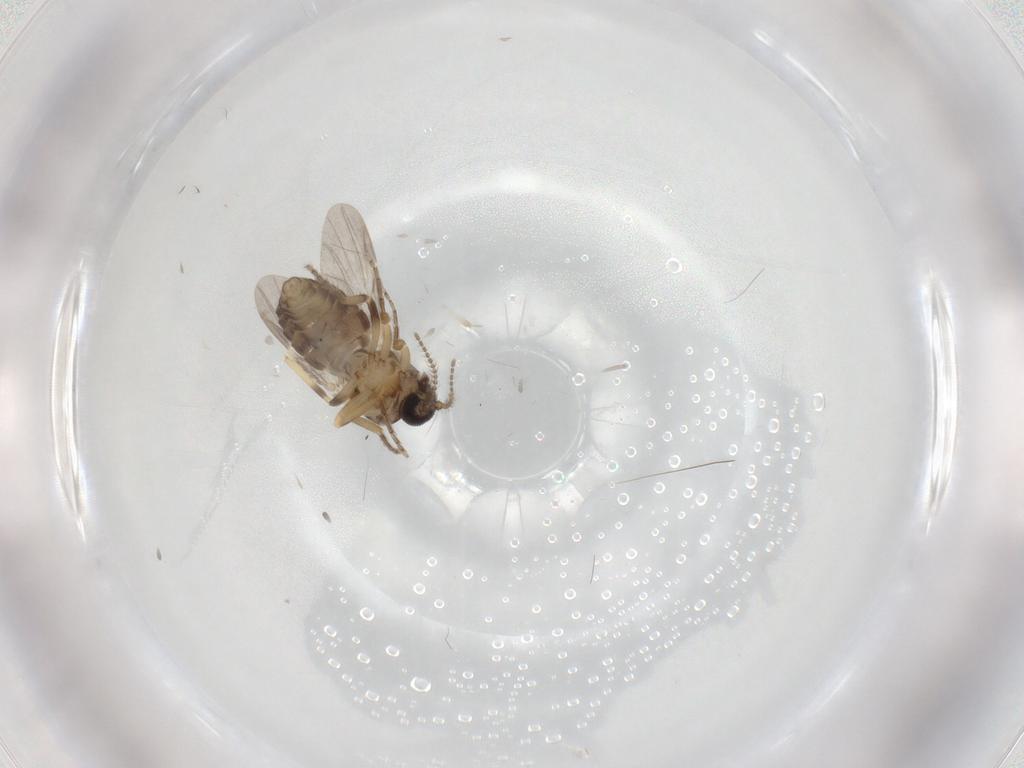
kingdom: Animalia
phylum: Arthropoda
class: Insecta
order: Diptera
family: Ceratopogonidae
